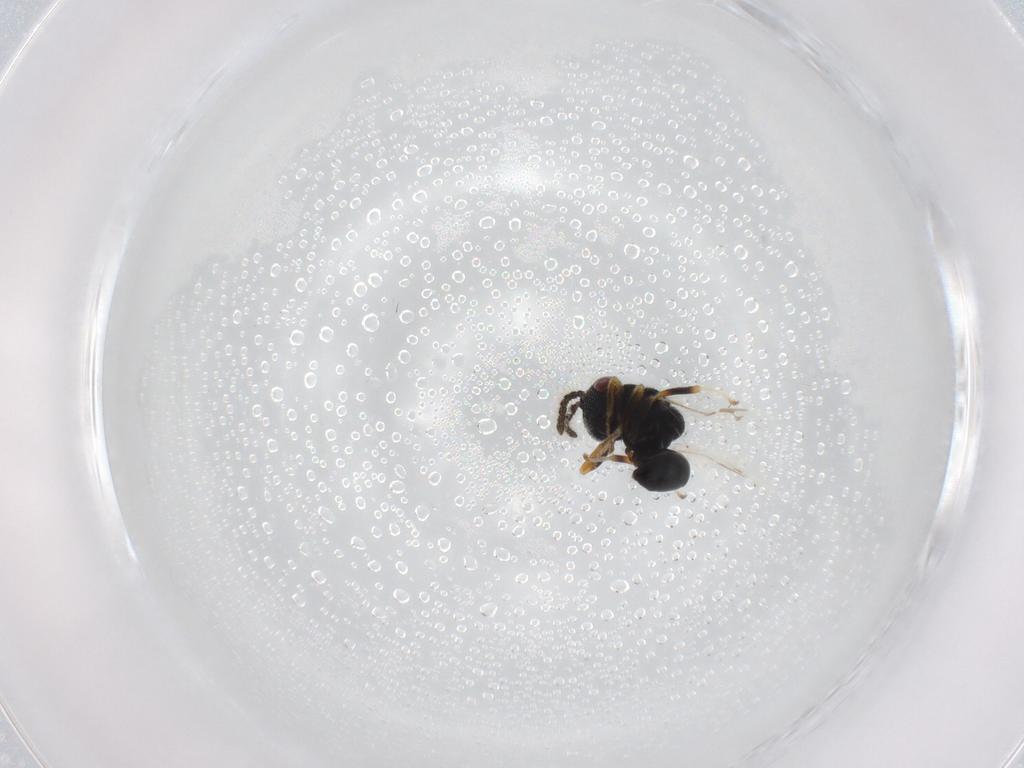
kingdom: Animalia
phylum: Arthropoda
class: Insecta
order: Hymenoptera
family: Eurytomidae
